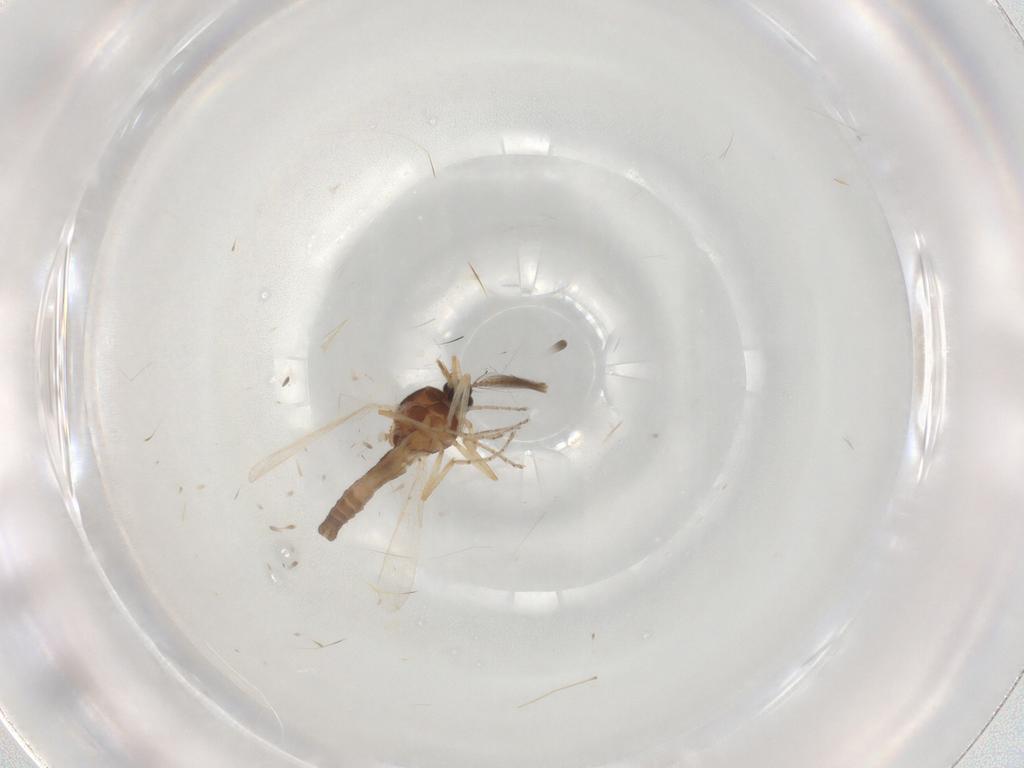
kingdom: Animalia
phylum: Arthropoda
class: Insecta
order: Diptera
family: Ceratopogonidae
